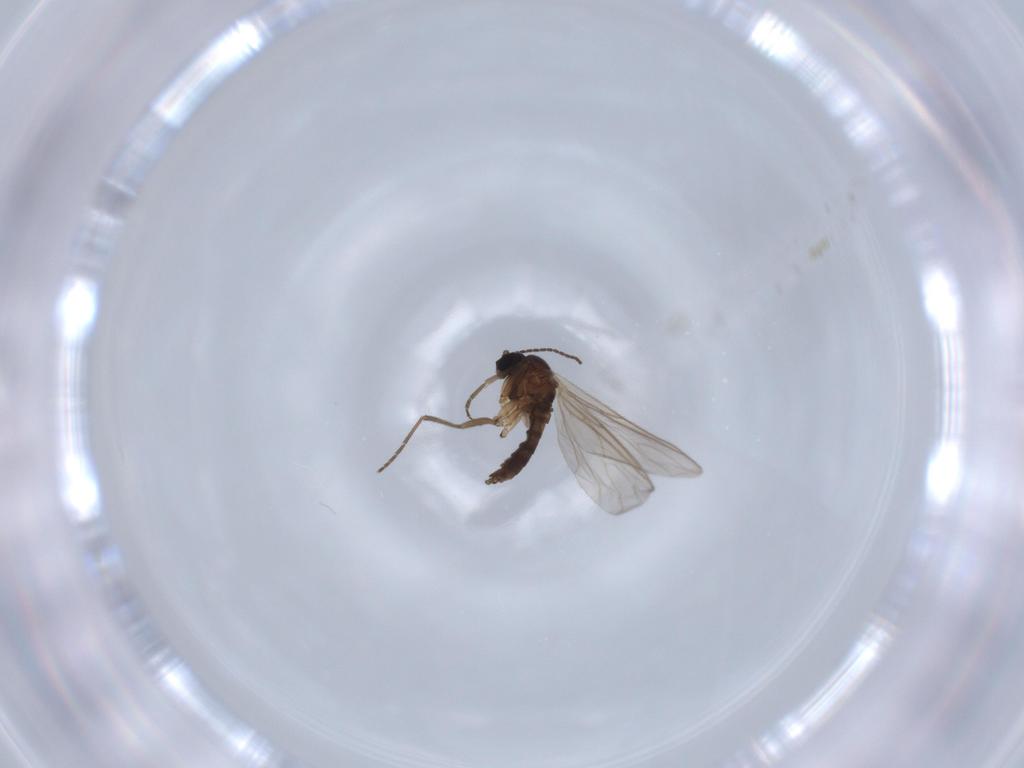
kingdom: Animalia
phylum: Arthropoda
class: Insecta
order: Diptera
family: Sciaridae
